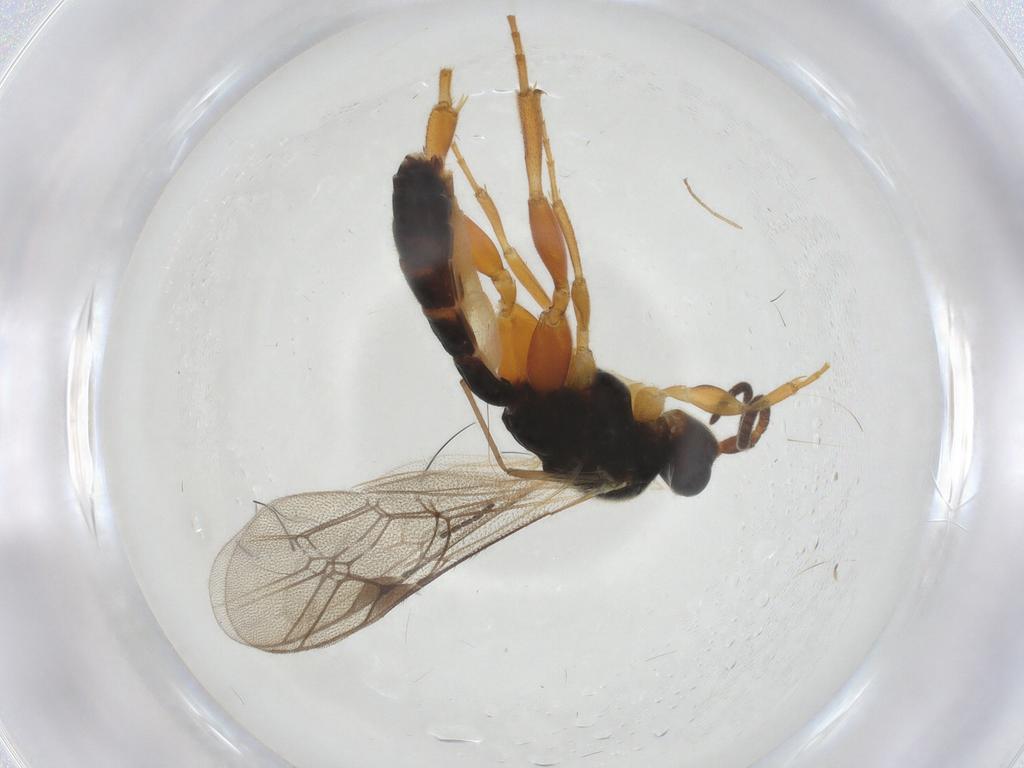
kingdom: Animalia
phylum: Arthropoda
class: Insecta
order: Hymenoptera
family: Ichneumonidae
